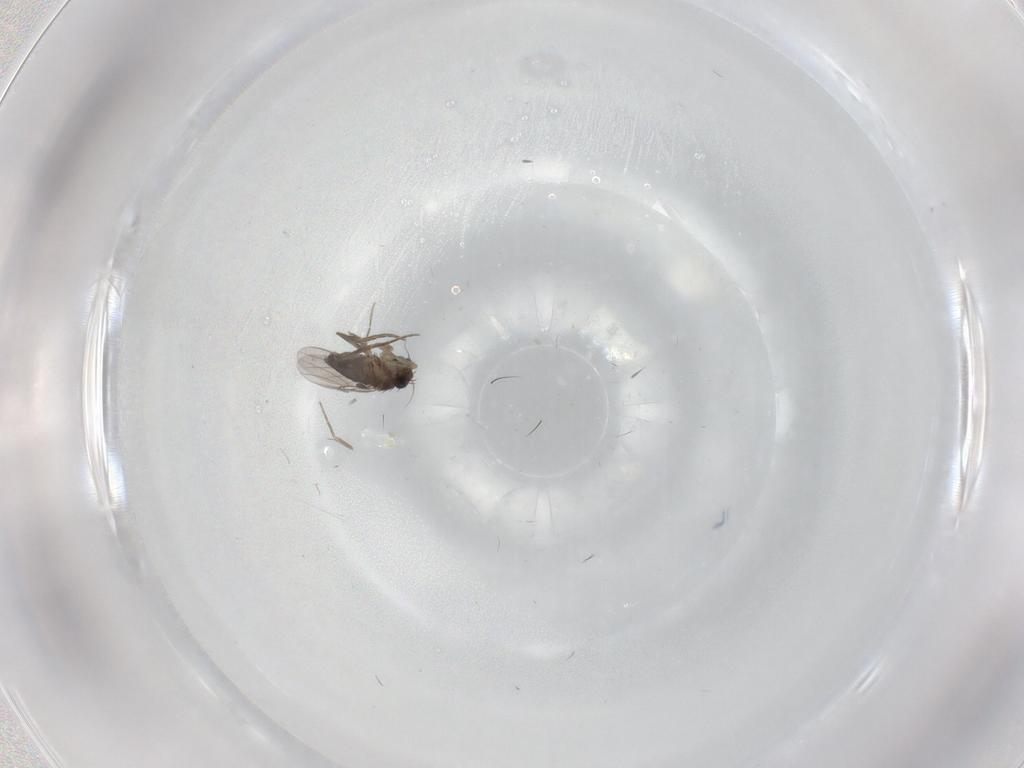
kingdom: Animalia
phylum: Arthropoda
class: Insecta
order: Diptera
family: Phoridae
